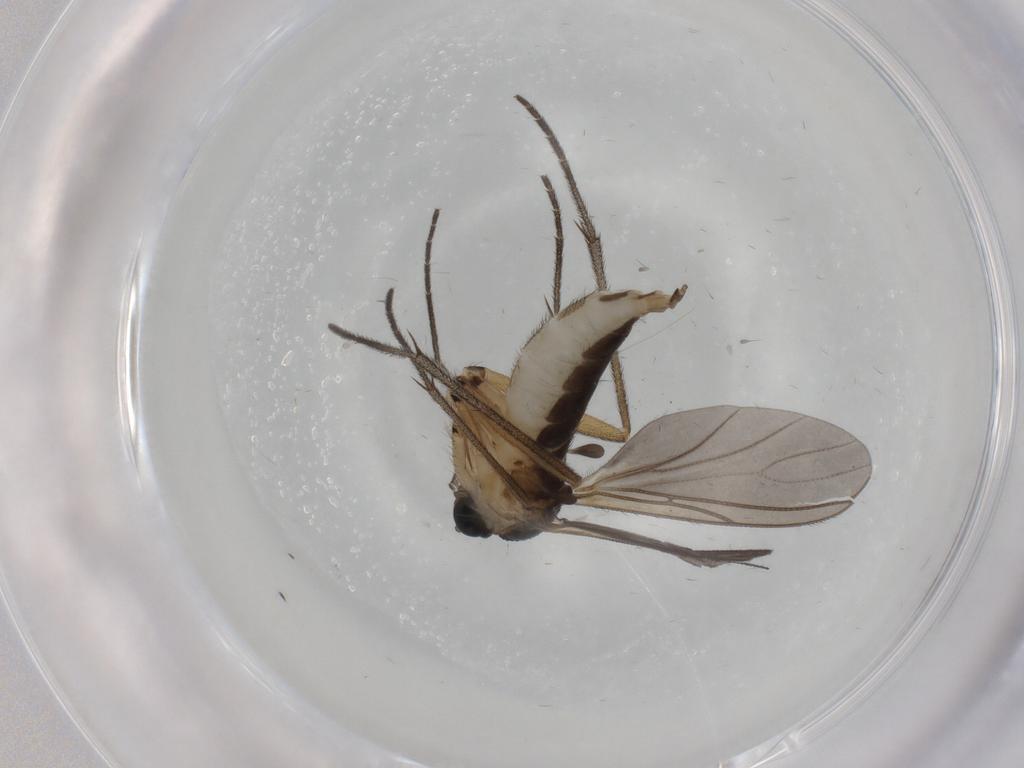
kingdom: Animalia
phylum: Arthropoda
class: Insecta
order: Diptera
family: Sciaridae
